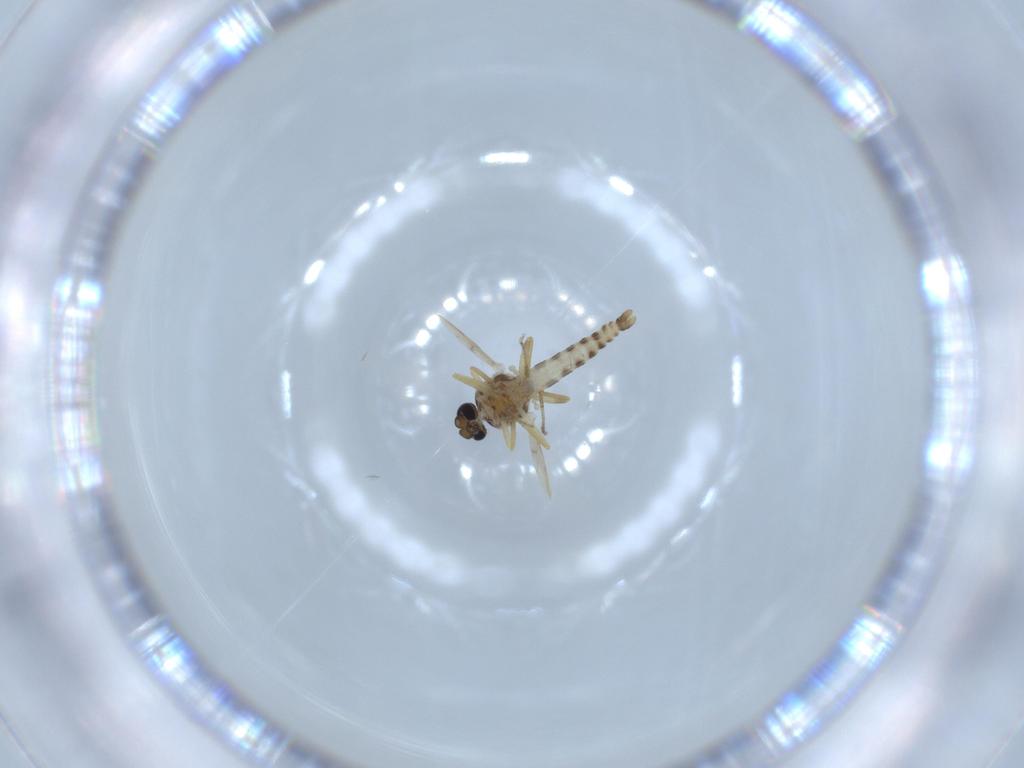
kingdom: Animalia
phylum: Arthropoda
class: Insecta
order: Diptera
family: Ceratopogonidae
